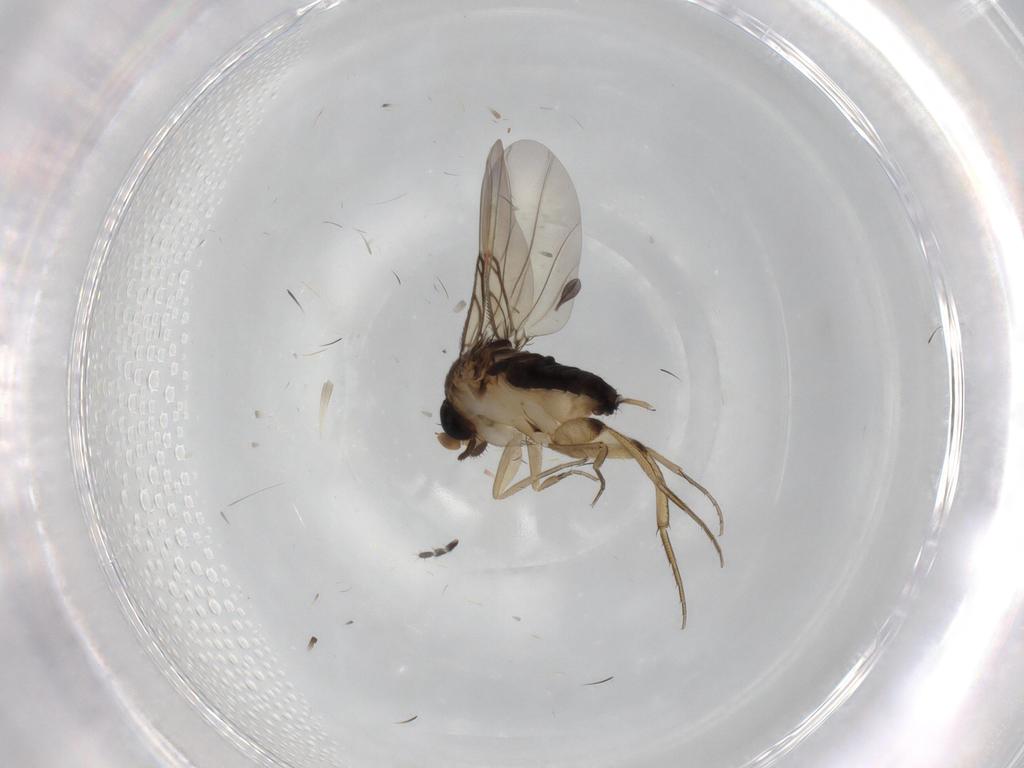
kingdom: Animalia
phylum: Arthropoda
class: Insecta
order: Diptera
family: Phoridae
